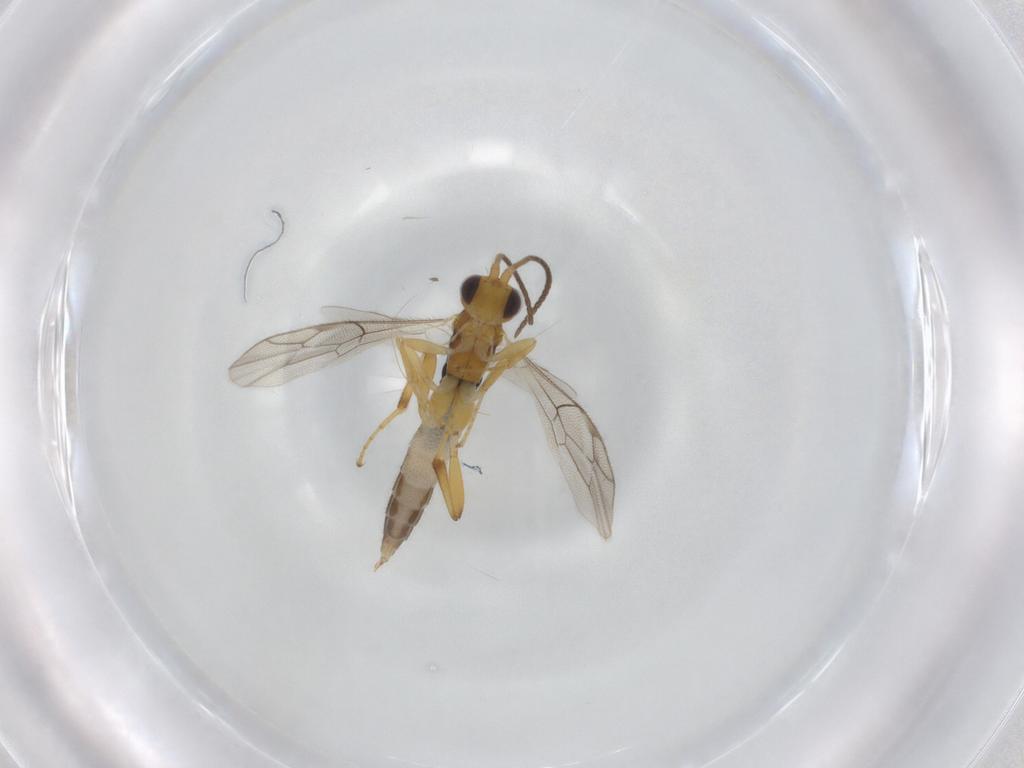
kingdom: Animalia
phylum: Arthropoda
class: Insecta
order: Hymenoptera
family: Ichneumonidae
